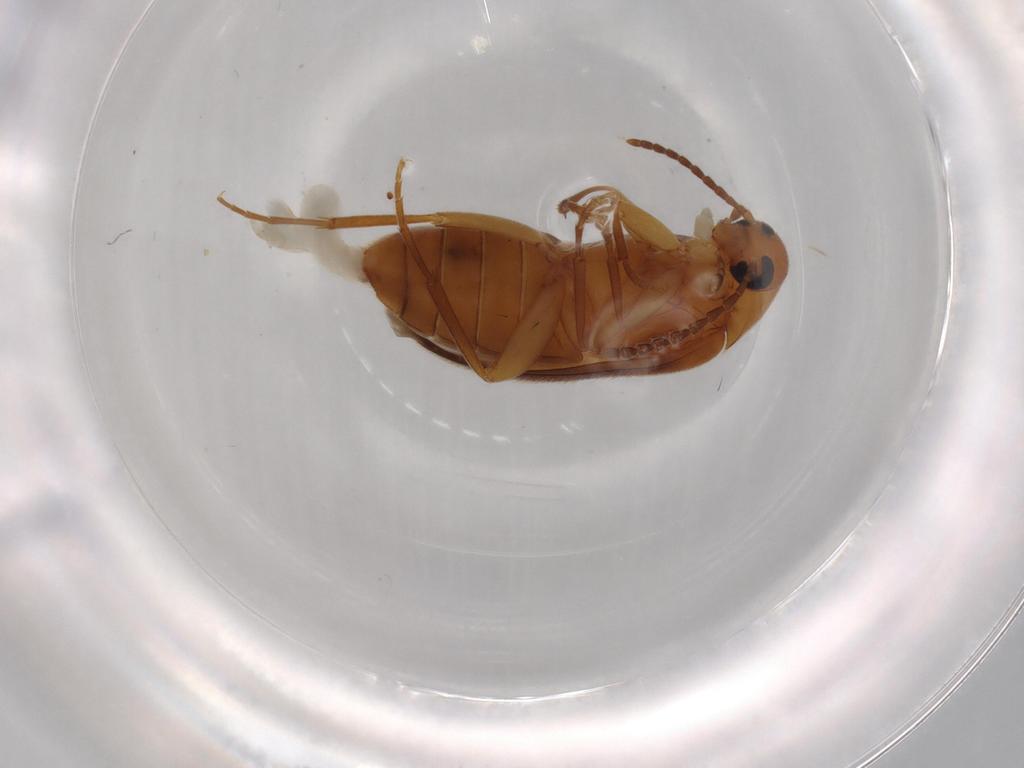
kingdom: Animalia
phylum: Arthropoda
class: Insecta
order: Coleoptera
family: Scraptiidae
